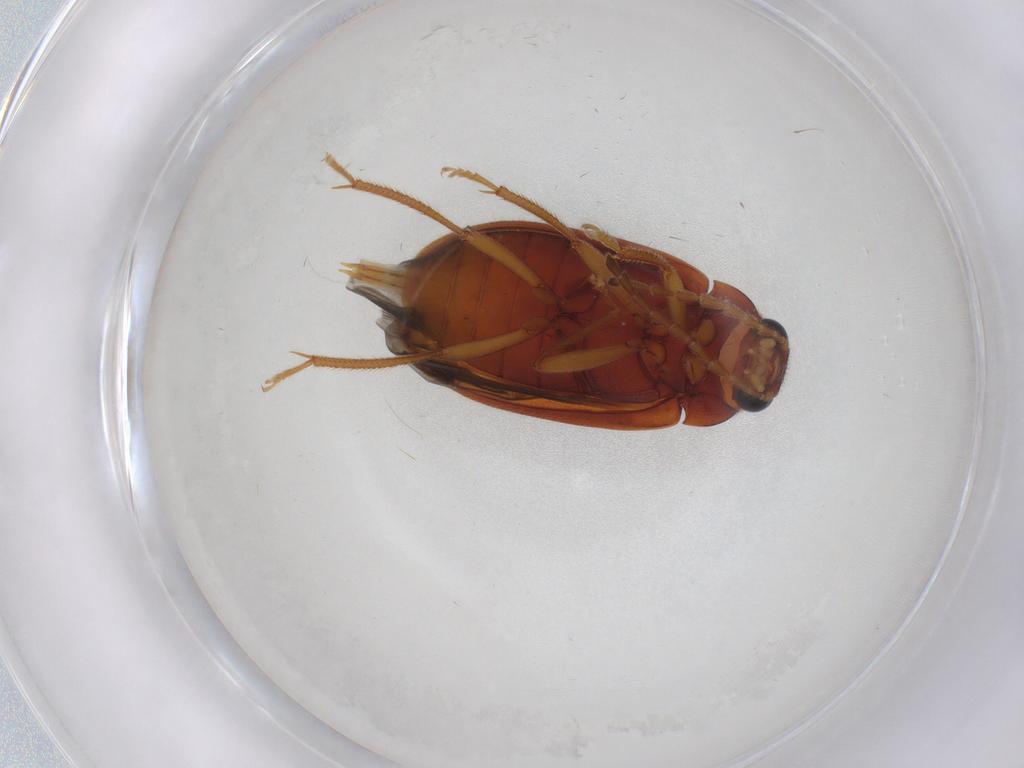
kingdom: Animalia
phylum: Arthropoda
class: Insecta
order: Coleoptera
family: Ptilodactylidae
